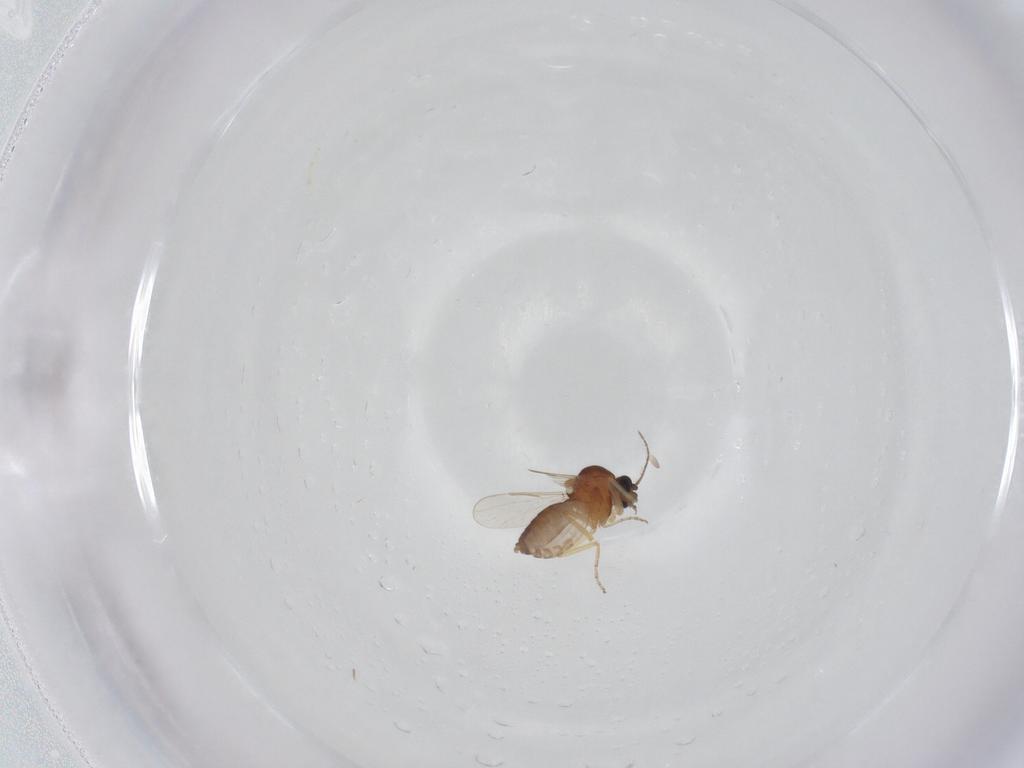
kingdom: Animalia
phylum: Arthropoda
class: Insecta
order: Diptera
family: Ceratopogonidae
